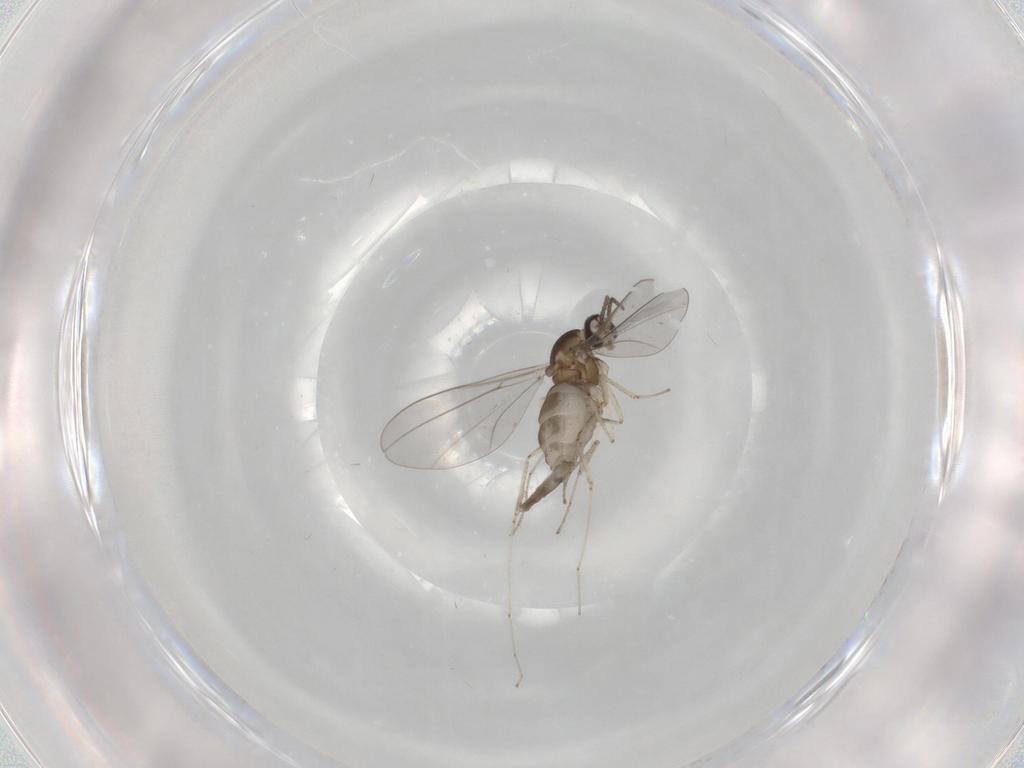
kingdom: Animalia
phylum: Arthropoda
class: Insecta
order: Diptera
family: Cecidomyiidae
